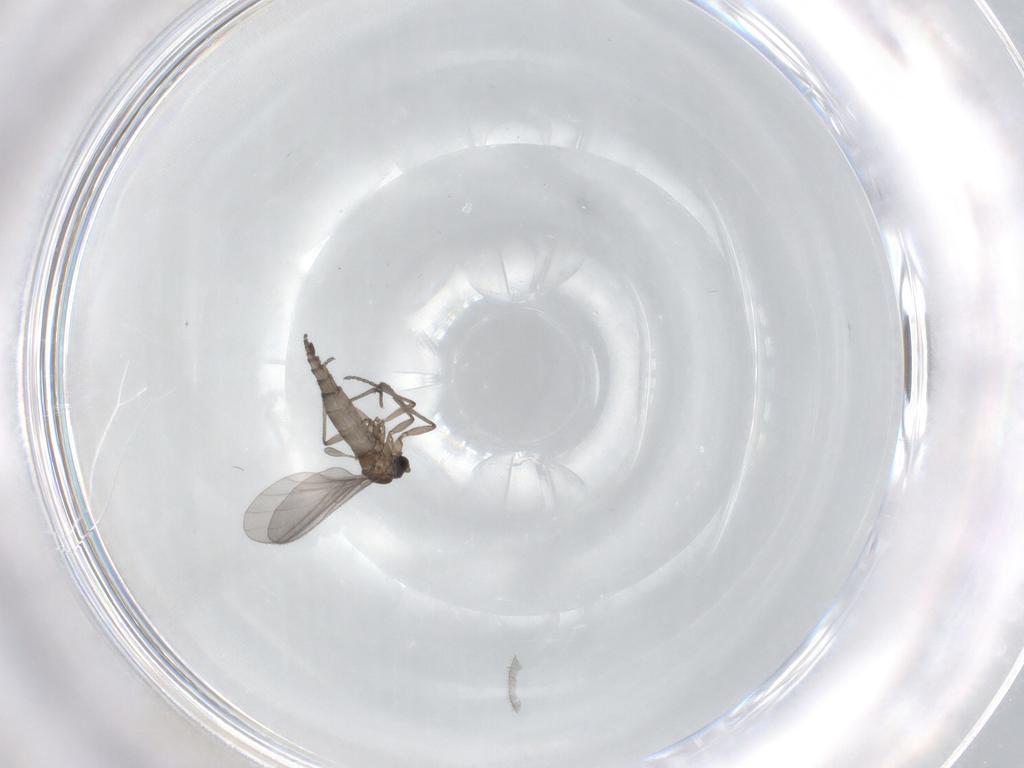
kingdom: Animalia
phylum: Arthropoda
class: Insecta
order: Diptera
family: Sciaridae
